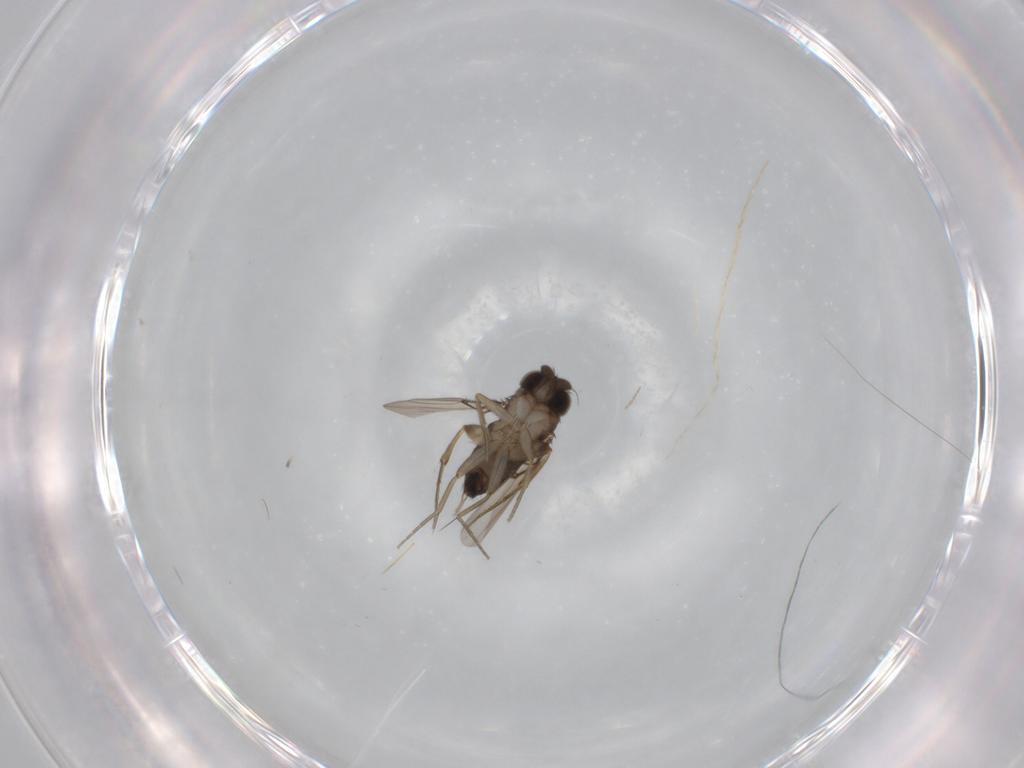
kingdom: Animalia
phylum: Arthropoda
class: Insecta
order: Diptera
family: Phoridae
